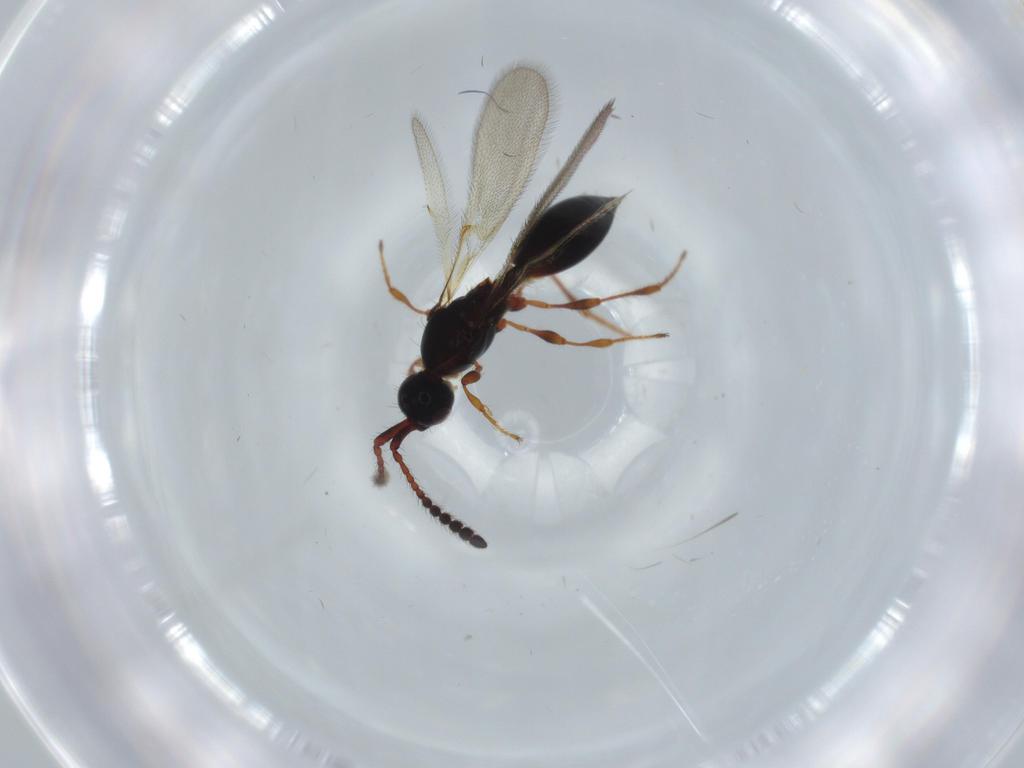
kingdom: Animalia
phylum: Arthropoda
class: Insecta
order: Hymenoptera
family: Diapriidae
